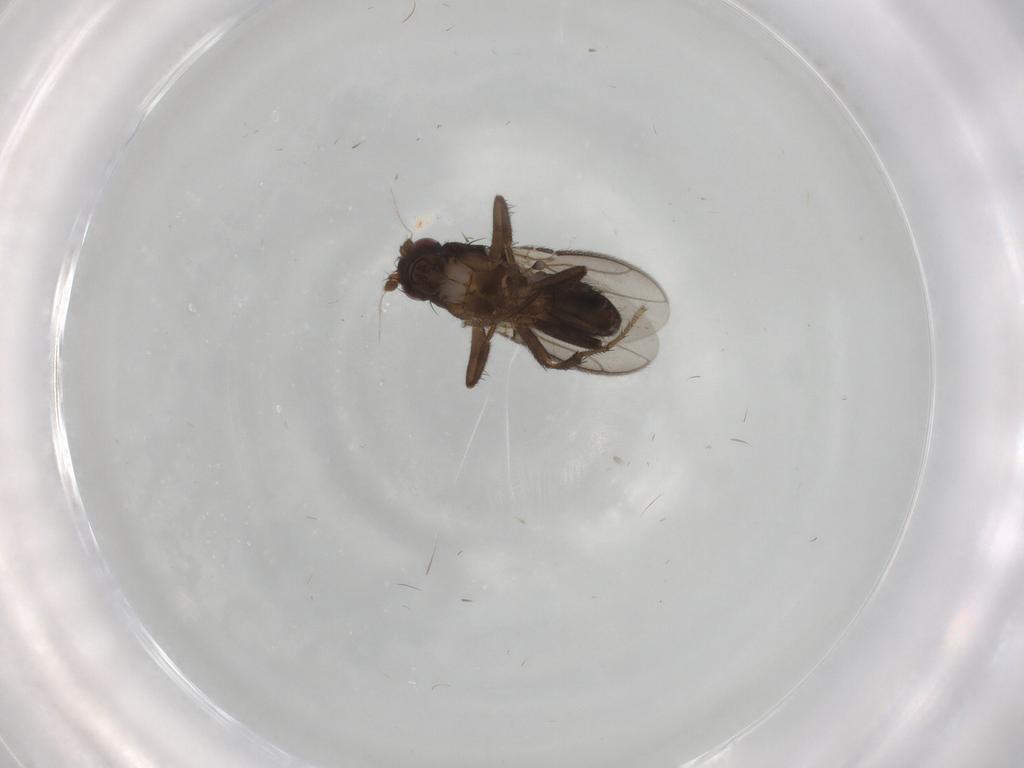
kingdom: Animalia
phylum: Arthropoda
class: Insecta
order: Diptera
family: Sphaeroceridae
